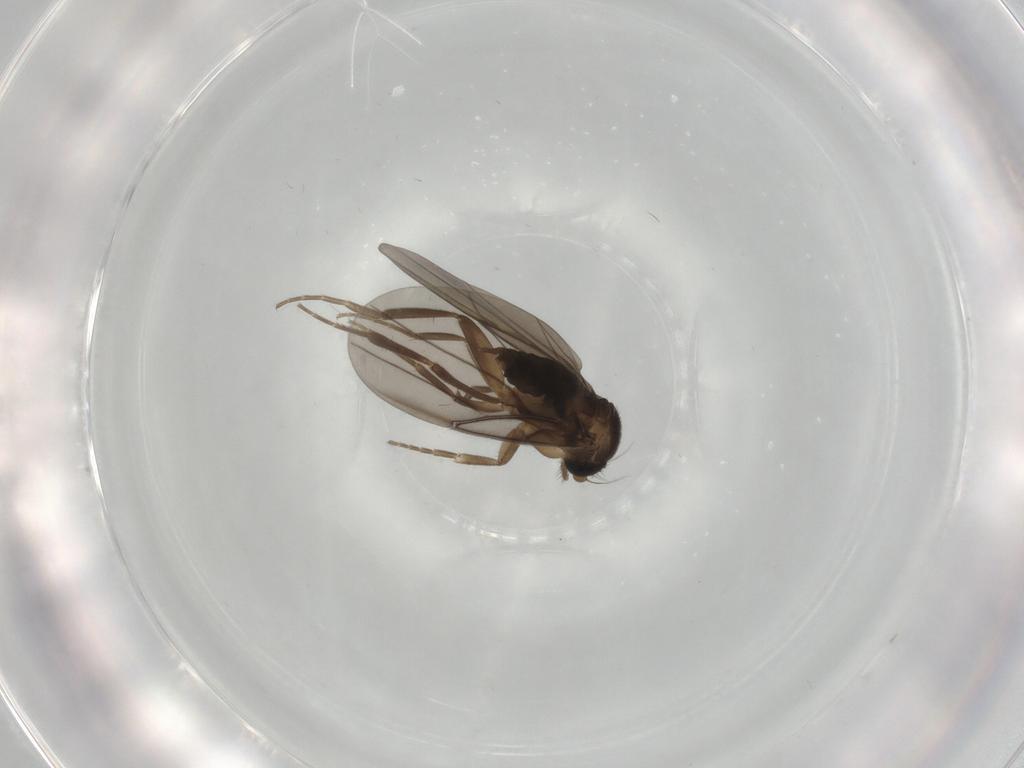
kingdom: Animalia
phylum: Arthropoda
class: Insecta
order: Diptera
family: Phoridae
